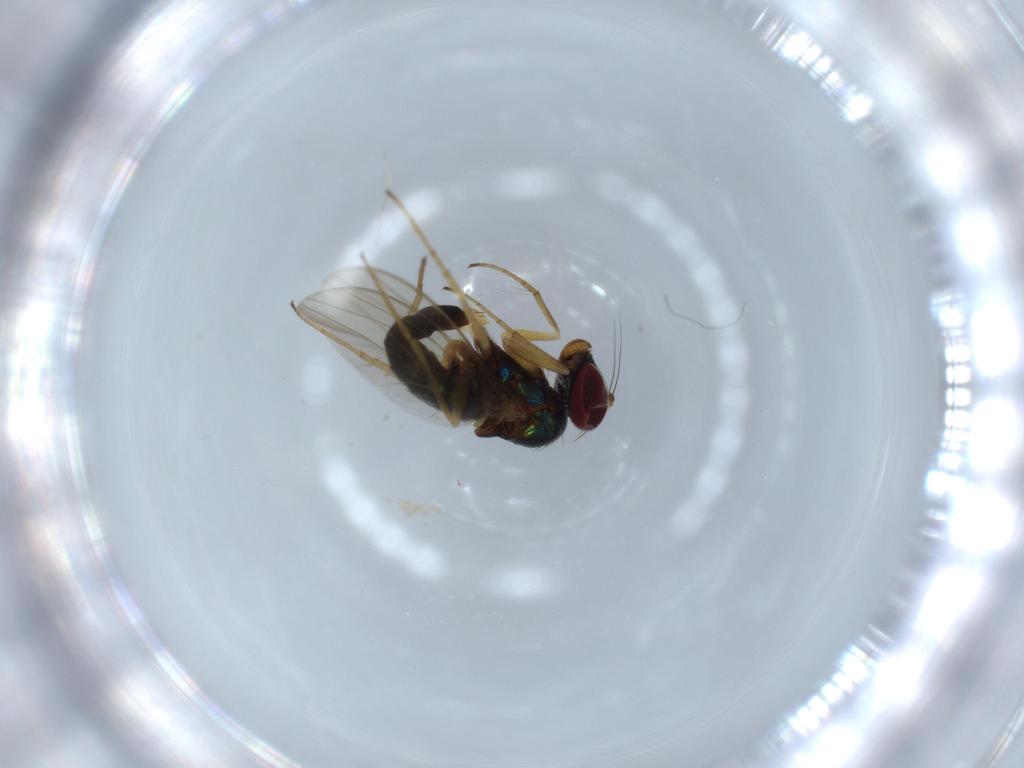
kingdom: Animalia
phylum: Arthropoda
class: Insecta
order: Diptera
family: Dolichopodidae
